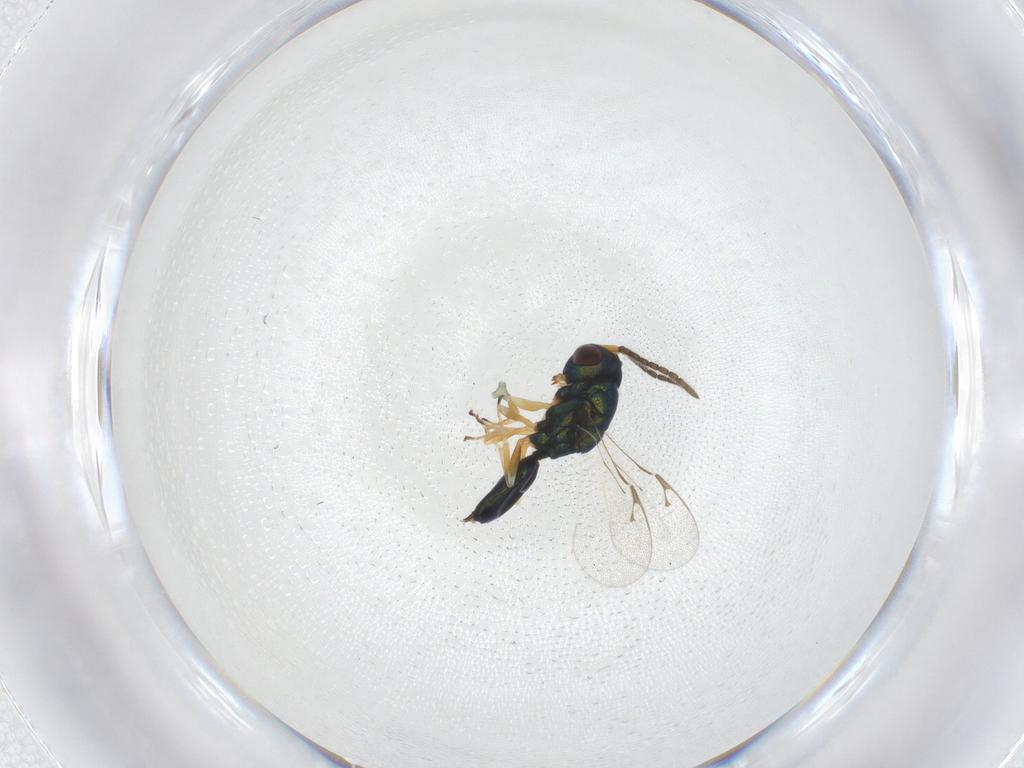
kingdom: Animalia
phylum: Arthropoda
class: Insecta
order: Hymenoptera
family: Pteromalidae
